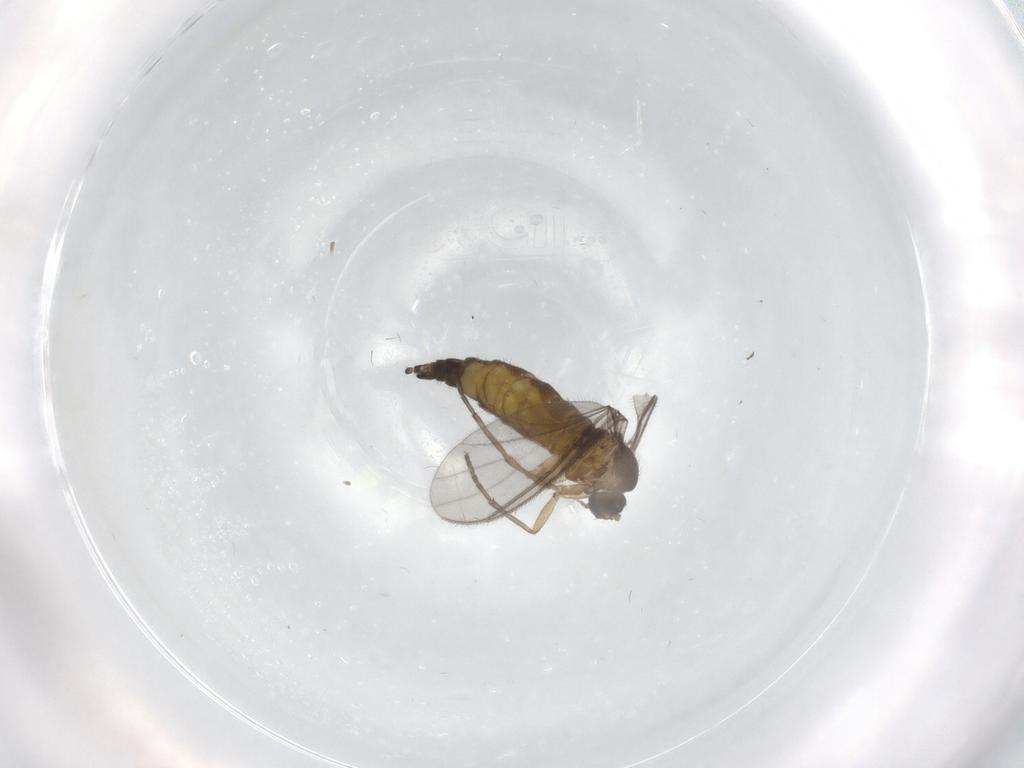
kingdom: Animalia
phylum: Arthropoda
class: Insecta
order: Diptera
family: Sciaridae
